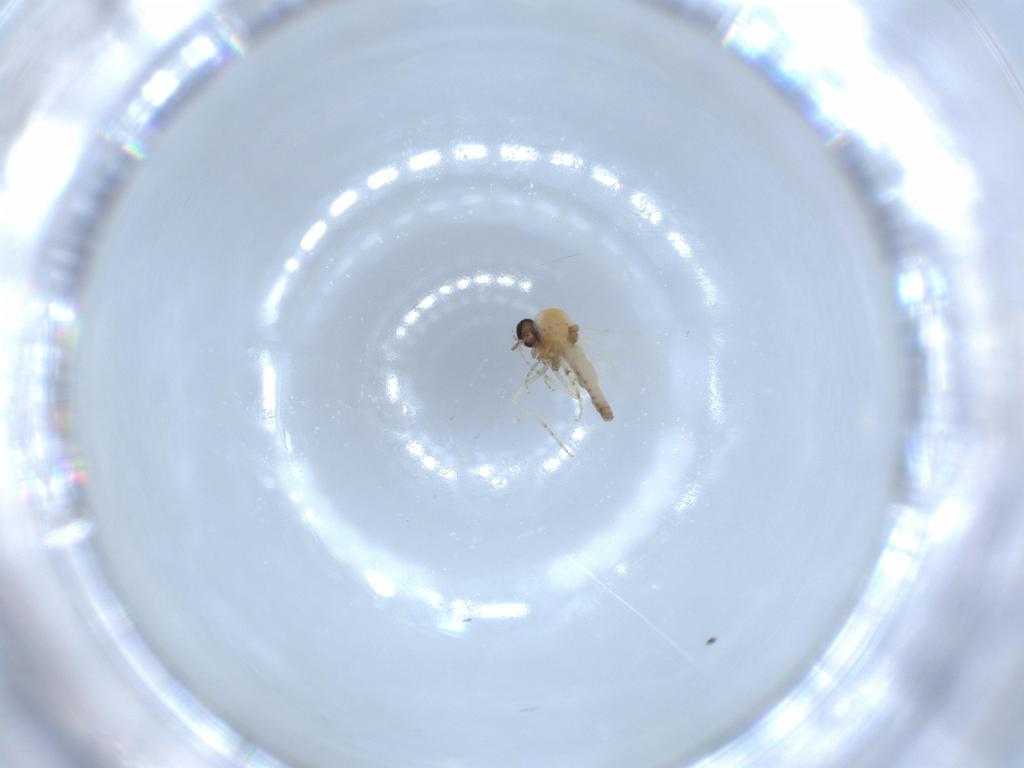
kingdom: Animalia
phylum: Arthropoda
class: Insecta
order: Diptera
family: Ceratopogonidae
